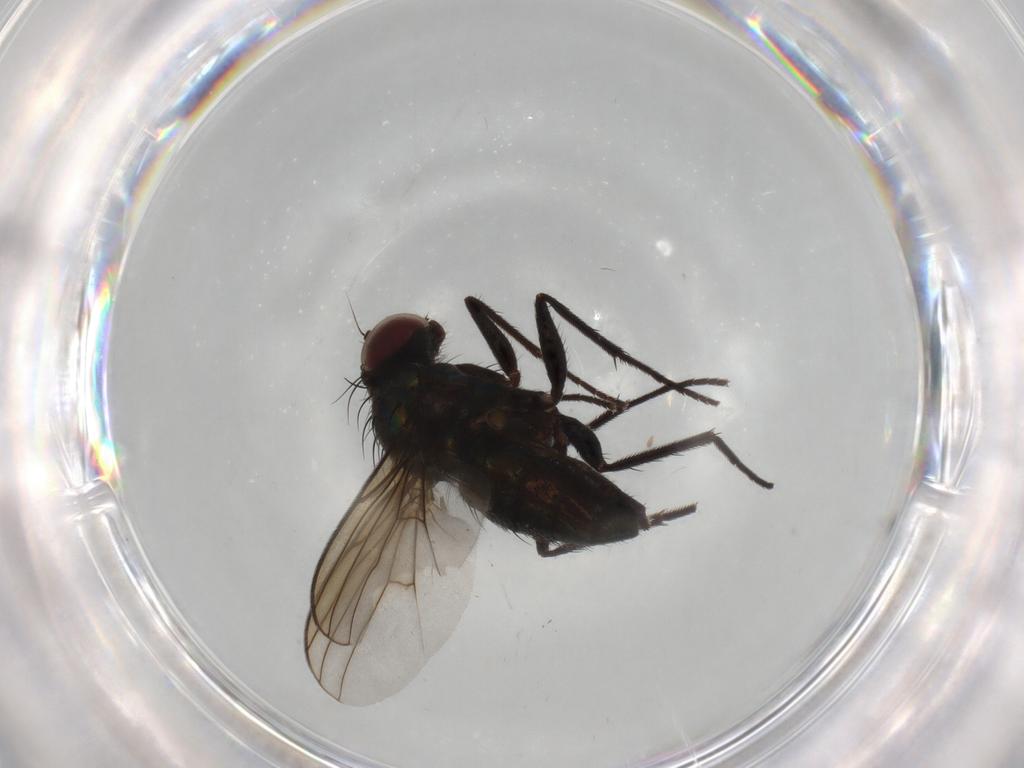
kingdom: Animalia
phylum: Arthropoda
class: Insecta
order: Diptera
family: Dolichopodidae
